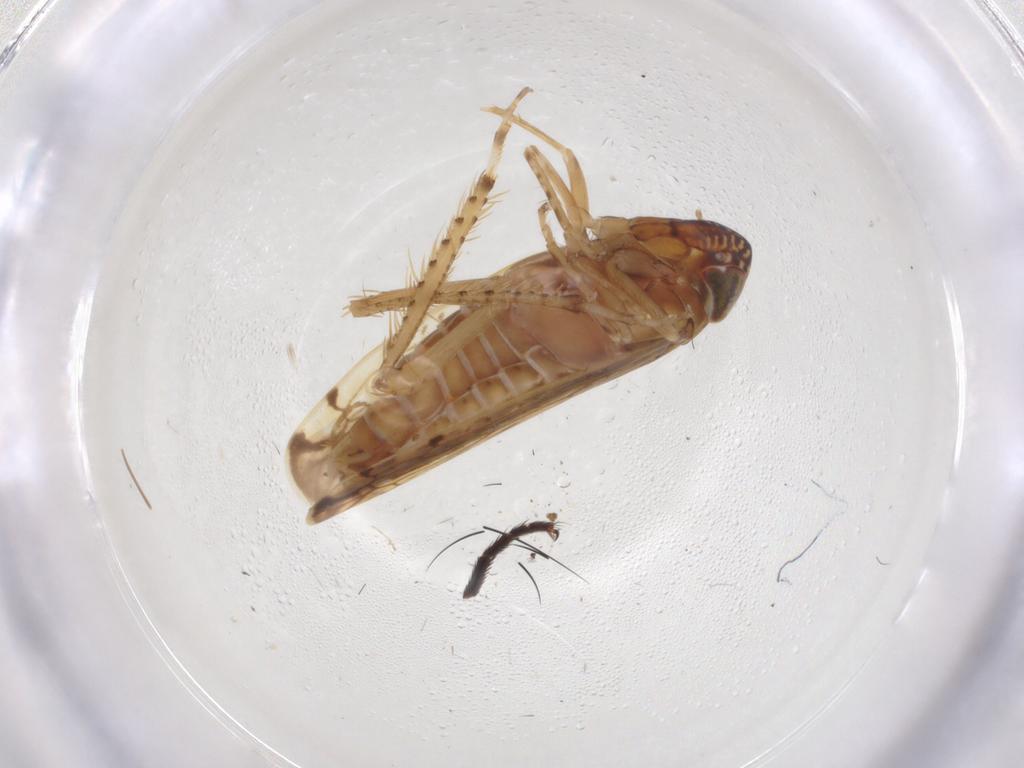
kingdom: Animalia
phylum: Arthropoda
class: Insecta
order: Hemiptera
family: Cicadellidae
